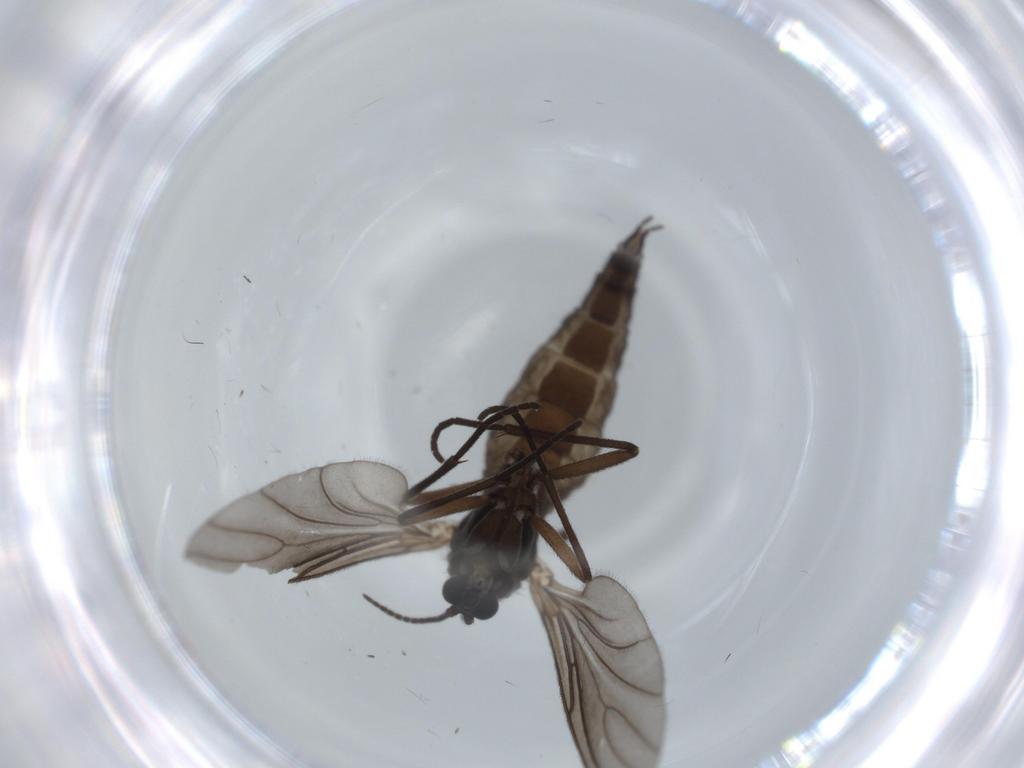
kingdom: Animalia
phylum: Arthropoda
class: Insecta
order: Diptera
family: Sciaridae
